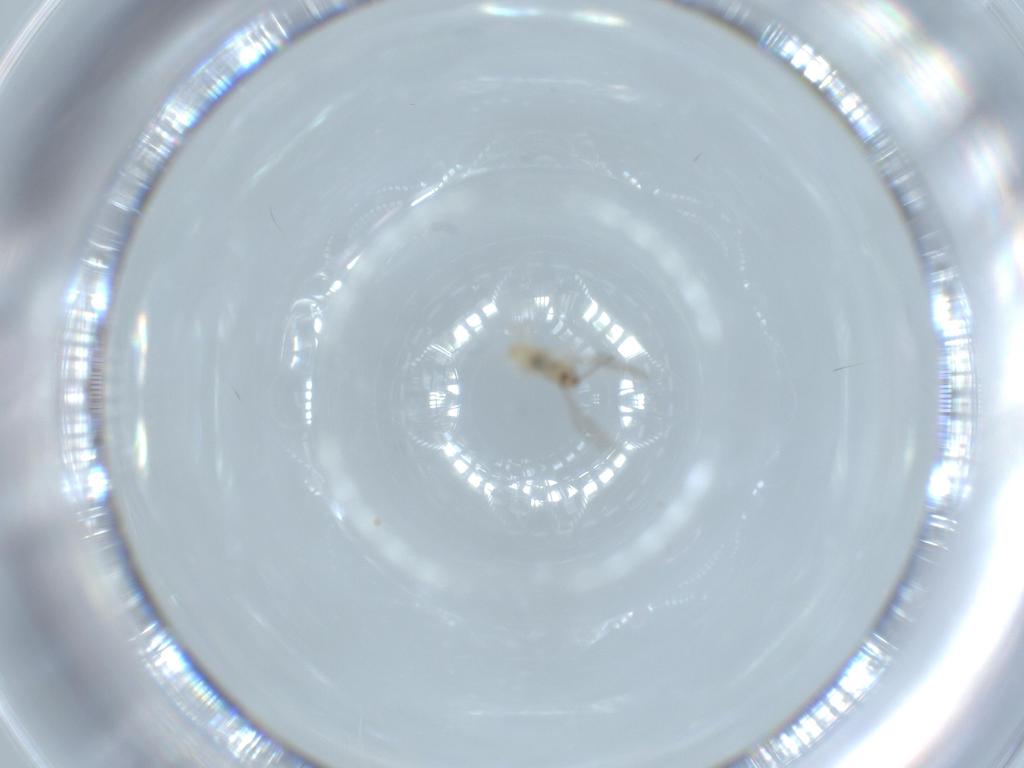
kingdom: Animalia
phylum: Arthropoda
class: Insecta
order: Diptera
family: Cecidomyiidae
